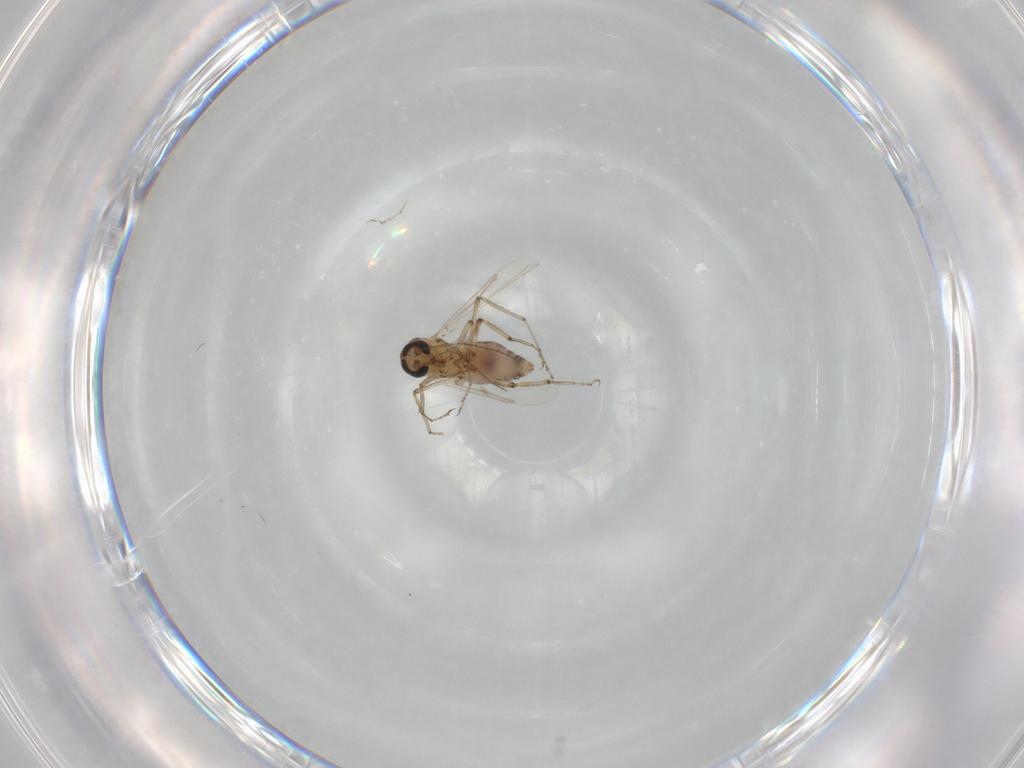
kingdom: Animalia
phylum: Arthropoda
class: Insecta
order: Diptera
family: Ceratopogonidae
